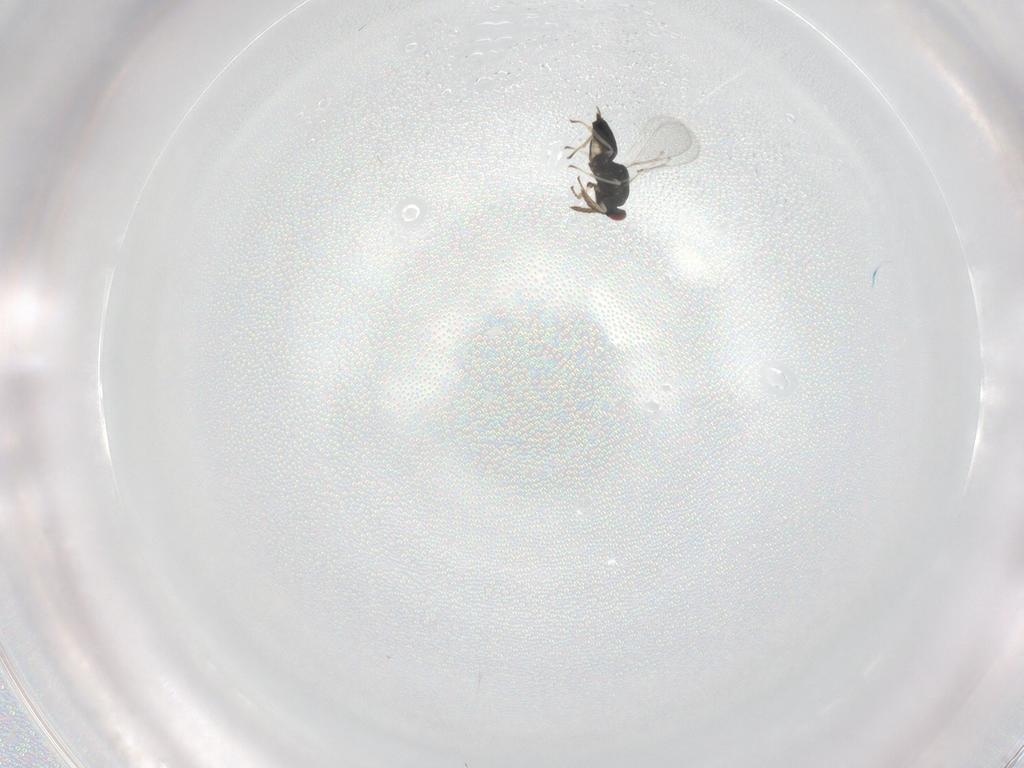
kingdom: Animalia
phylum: Arthropoda
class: Insecta
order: Hymenoptera
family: Eulophidae
